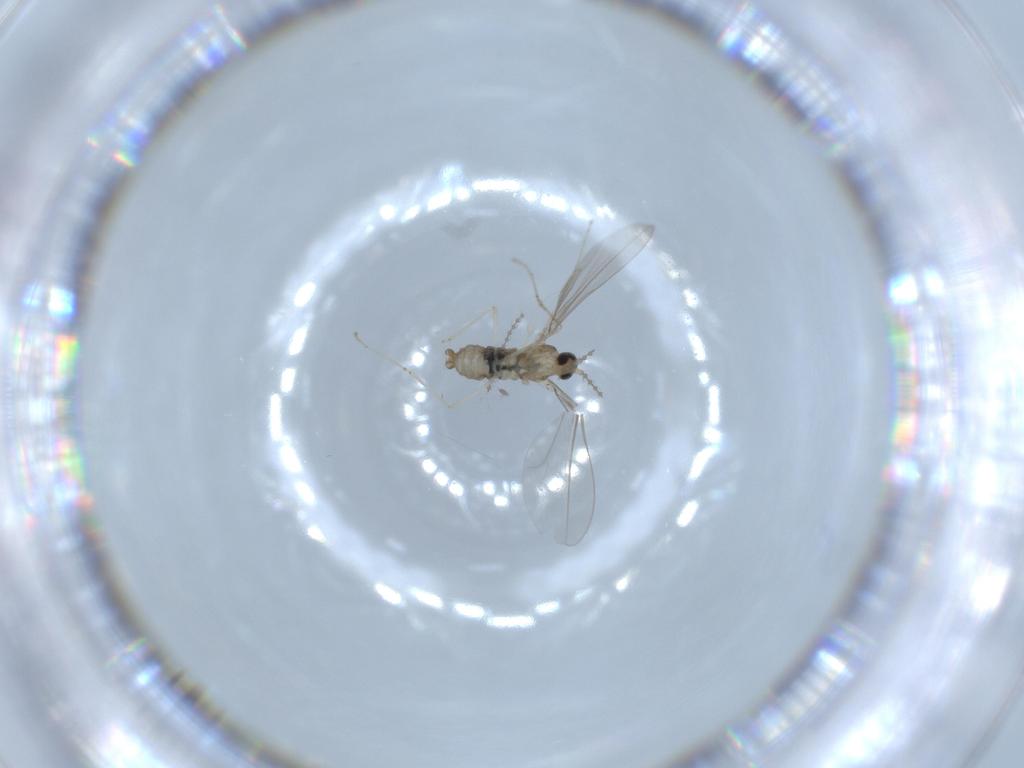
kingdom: Animalia
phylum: Arthropoda
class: Insecta
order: Diptera
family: Cecidomyiidae
